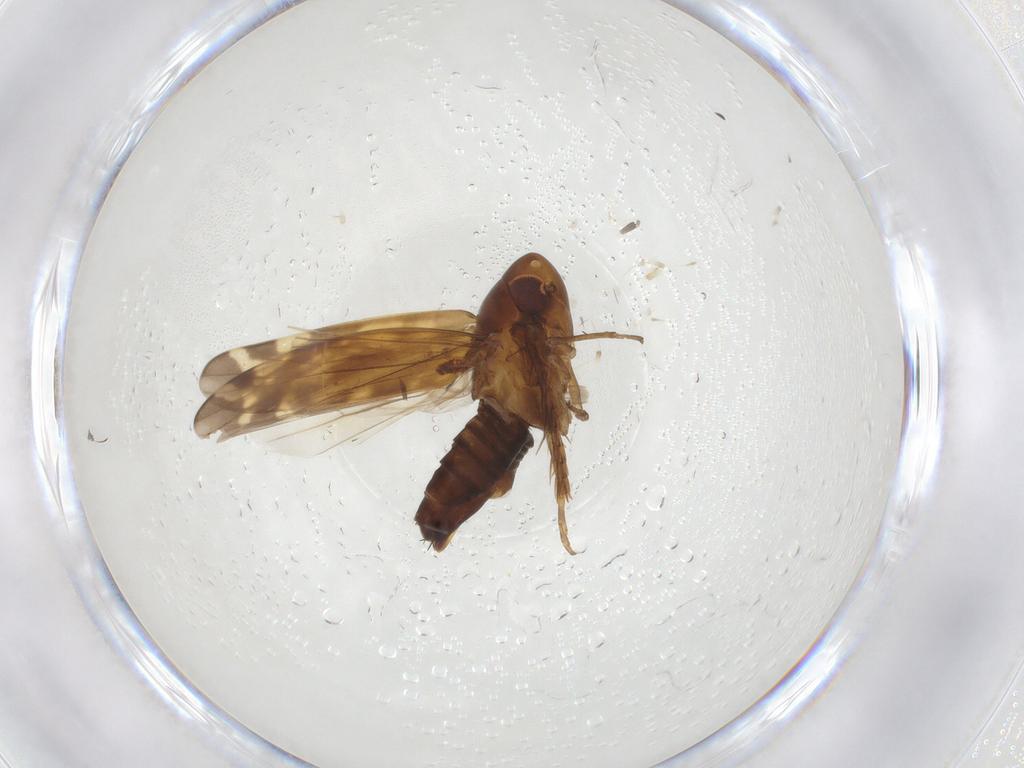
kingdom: Animalia
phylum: Arthropoda
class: Insecta
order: Hemiptera
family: Cicadellidae
